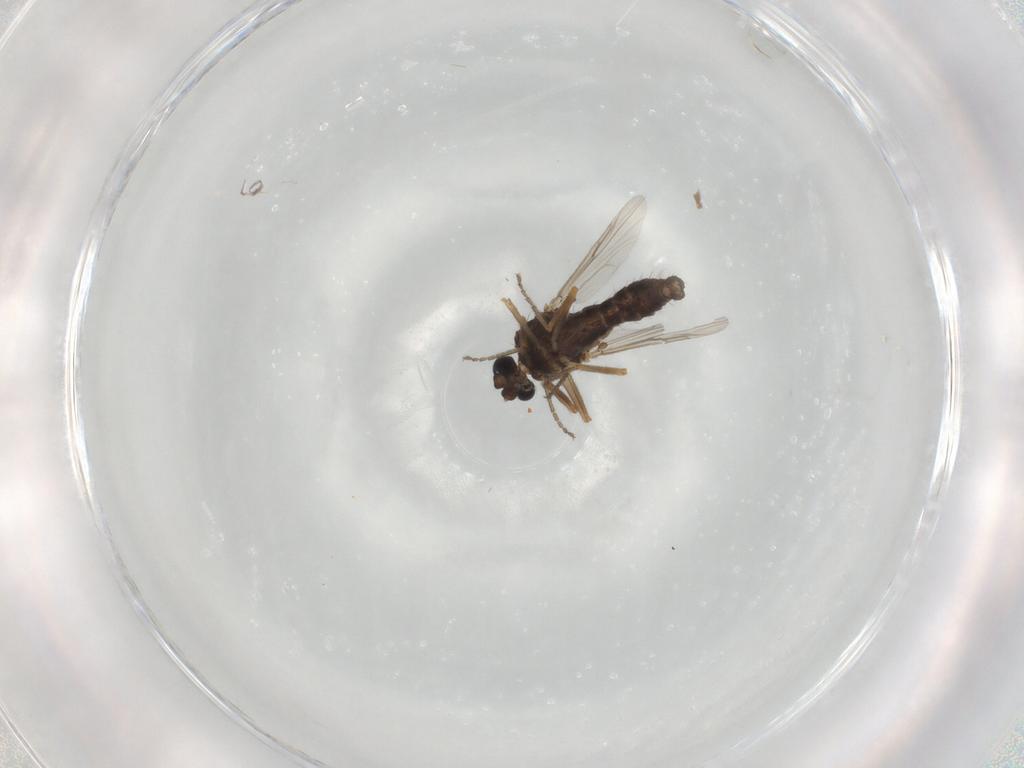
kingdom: Animalia
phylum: Arthropoda
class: Insecta
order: Diptera
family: Ceratopogonidae
